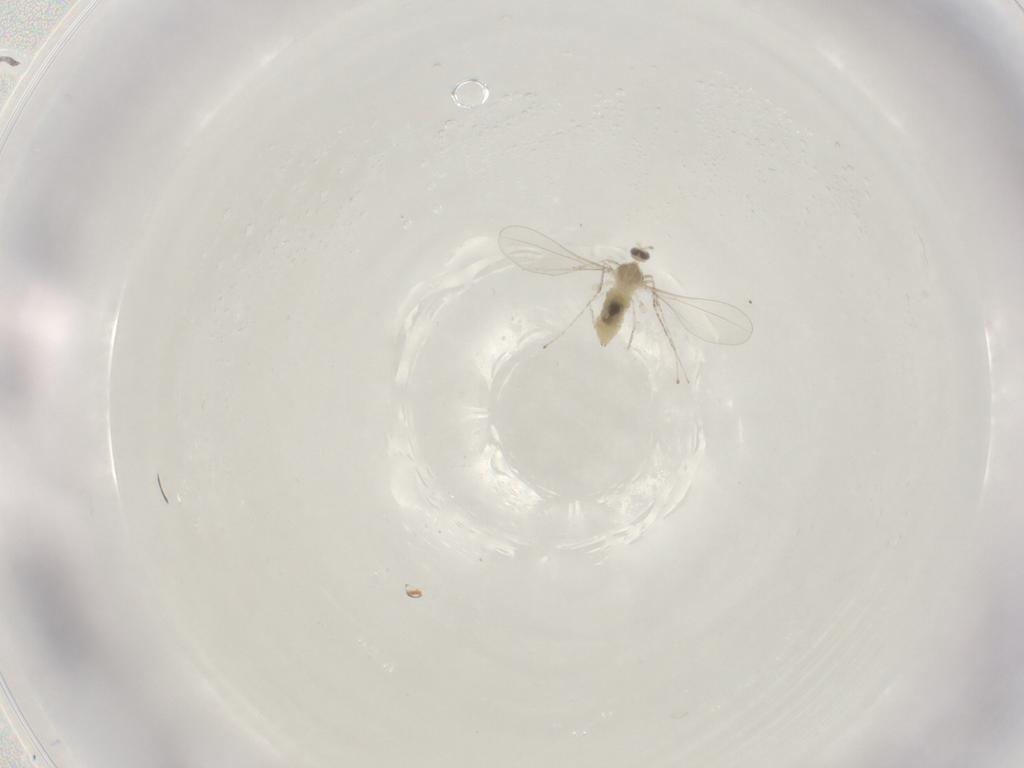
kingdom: Animalia
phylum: Arthropoda
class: Insecta
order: Diptera
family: Cecidomyiidae
